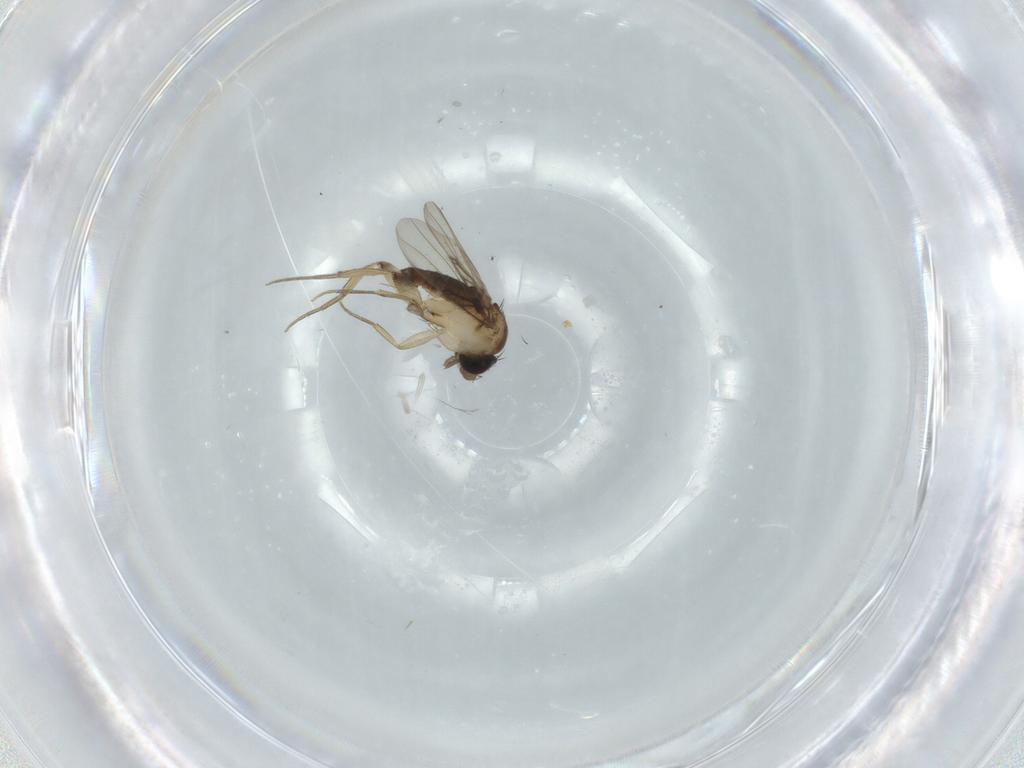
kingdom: Animalia
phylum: Arthropoda
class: Insecta
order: Diptera
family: Phoridae
